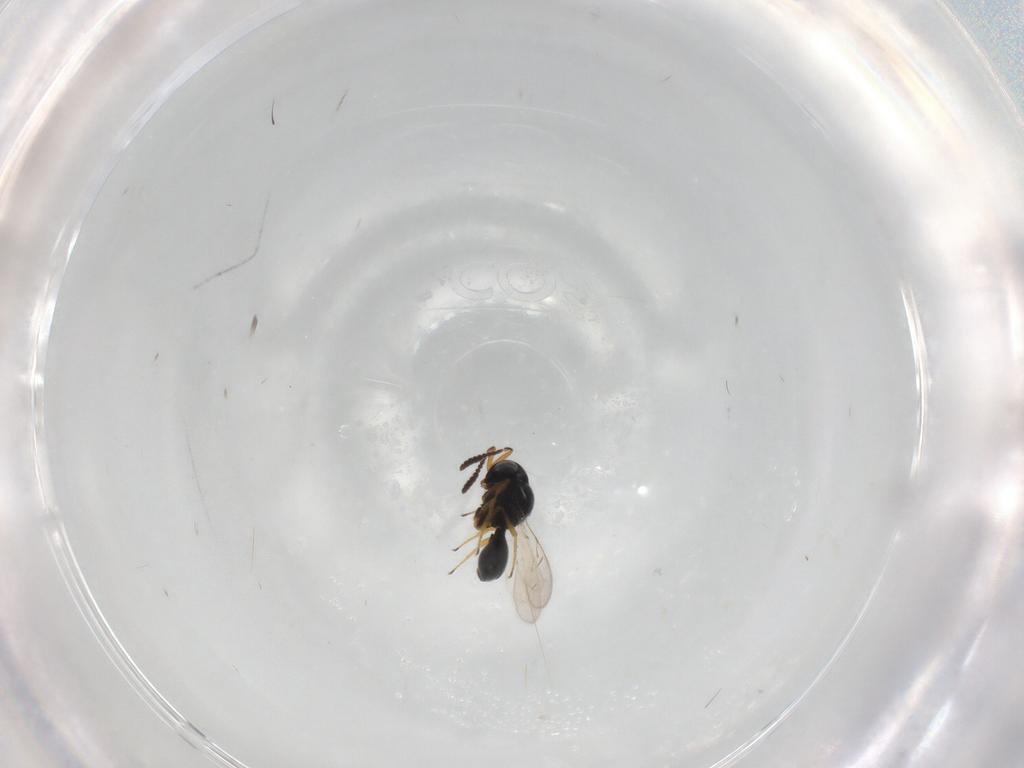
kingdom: Animalia
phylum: Arthropoda
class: Insecta
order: Hymenoptera
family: Scelionidae
